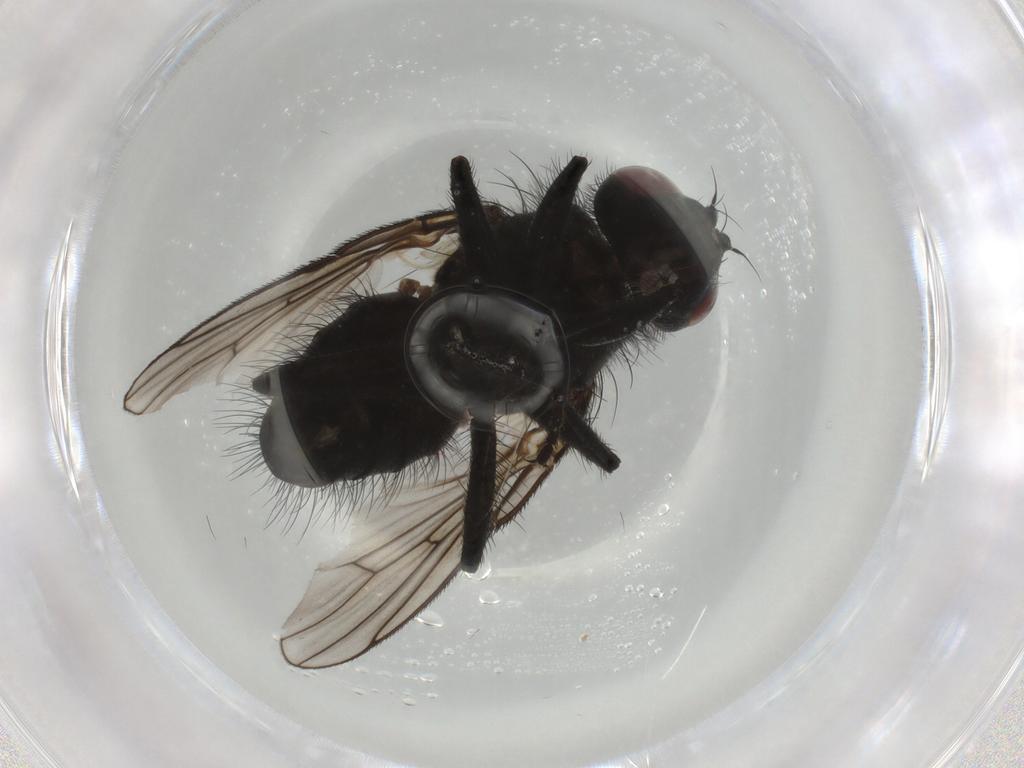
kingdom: Animalia
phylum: Arthropoda
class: Insecta
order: Diptera
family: Muscidae
